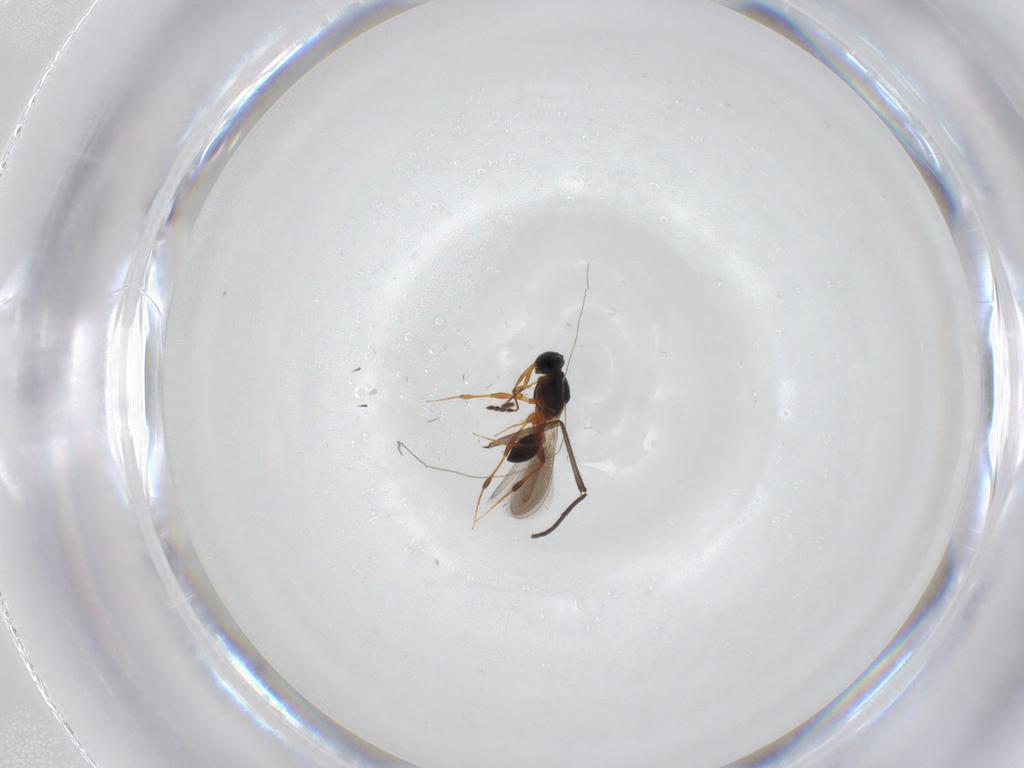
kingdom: Animalia
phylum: Arthropoda
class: Insecta
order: Hymenoptera
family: Platygastridae
